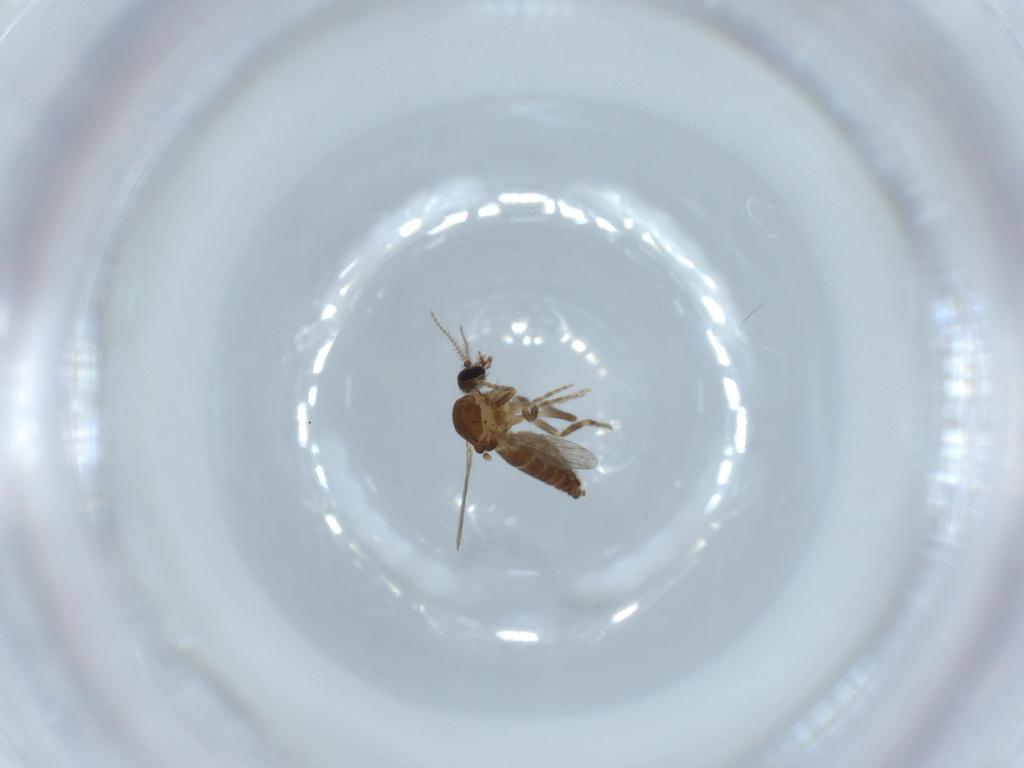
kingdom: Animalia
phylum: Arthropoda
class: Insecta
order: Diptera
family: Ceratopogonidae
